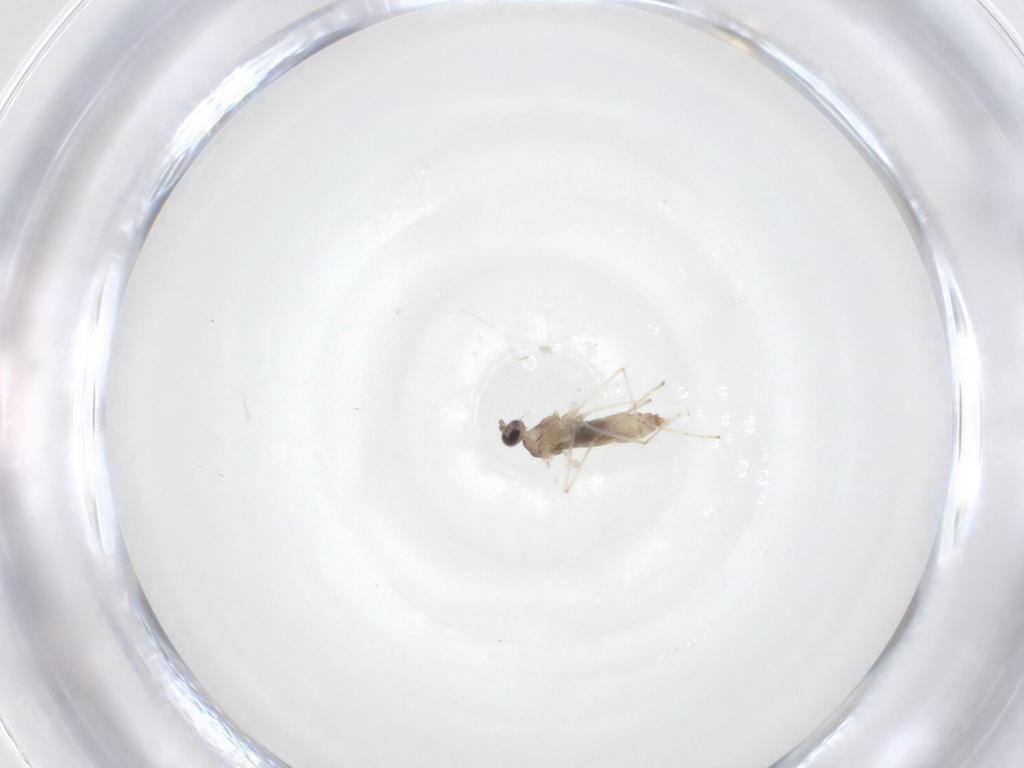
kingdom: Animalia
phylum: Arthropoda
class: Insecta
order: Diptera
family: Cecidomyiidae
